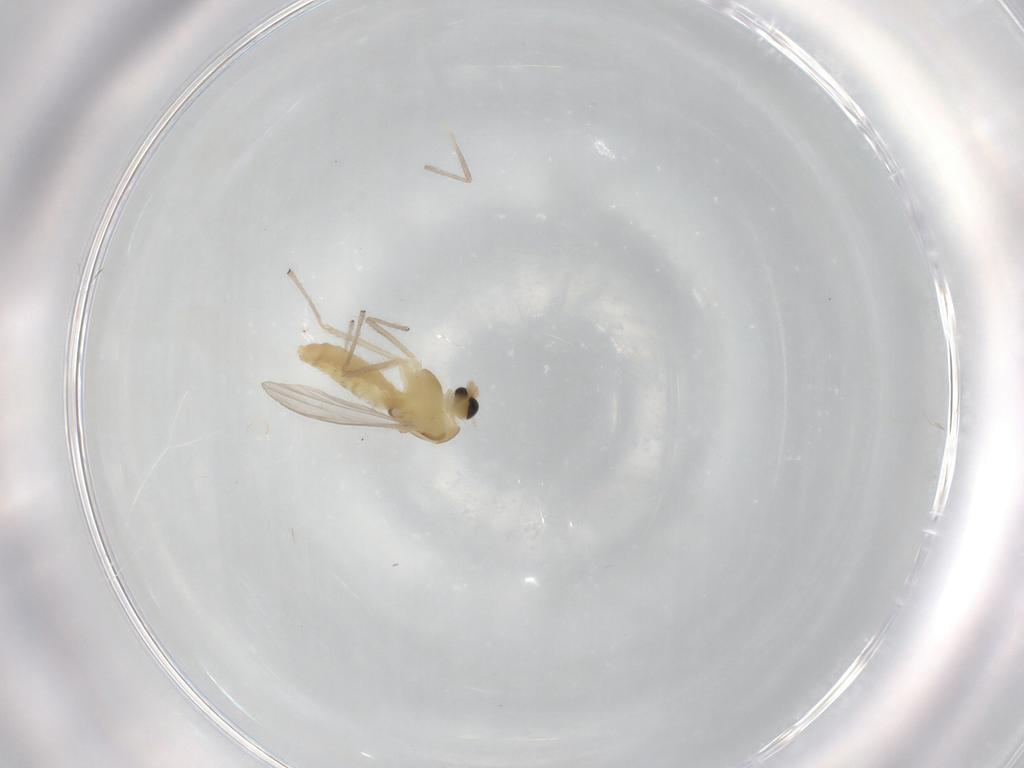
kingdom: Animalia
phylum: Arthropoda
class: Insecta
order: Diptera
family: Chironomidae
